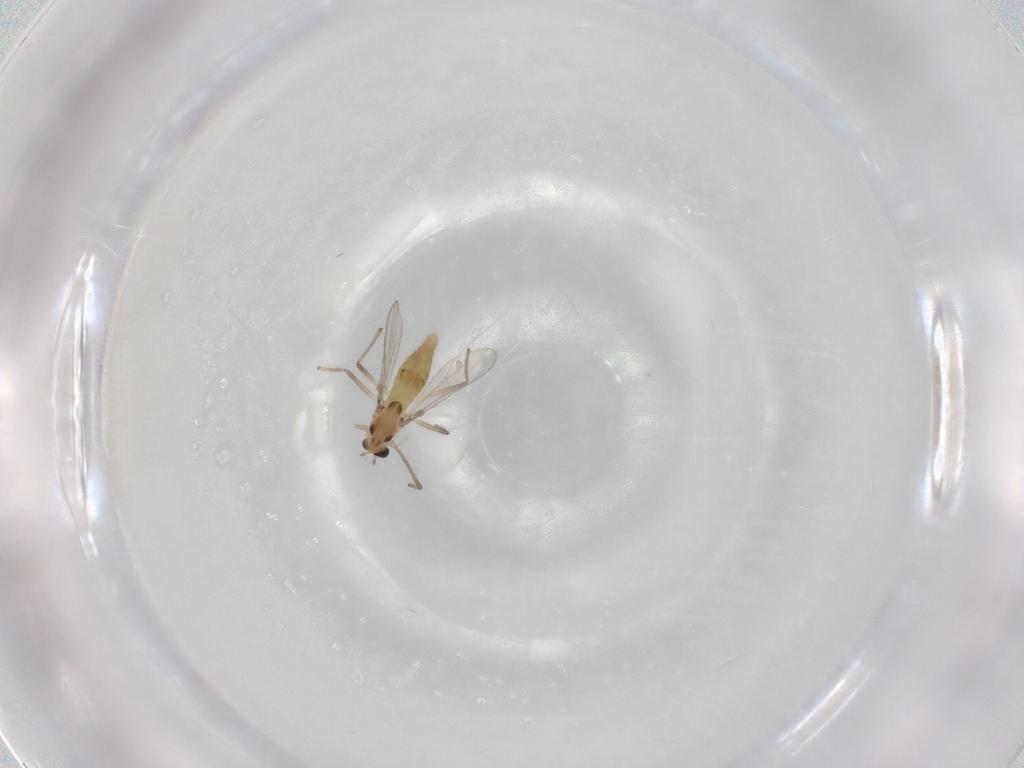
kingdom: Animalia
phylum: Arthropoda
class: Insecta
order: Diptera
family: Chironomidae
